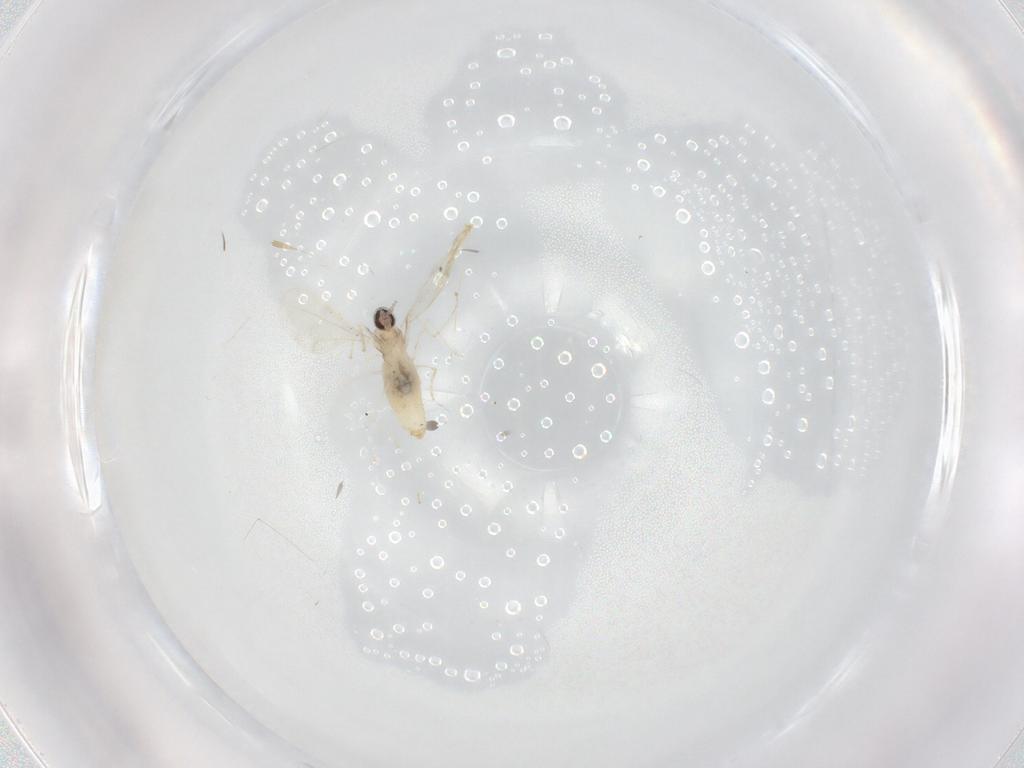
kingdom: Animalia
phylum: Arthropoda
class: Insecta
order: Diptera
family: Cecidomyiidae
